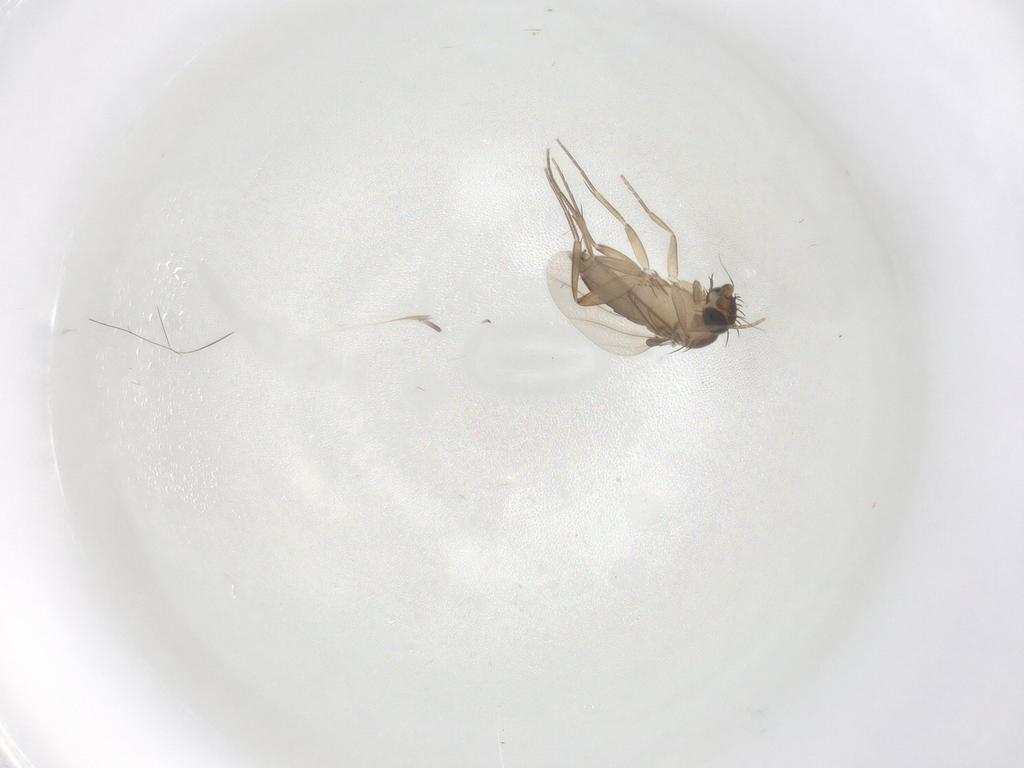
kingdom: Animalia
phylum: Arthropoda
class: Insecta
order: Diptera
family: Phoridae
